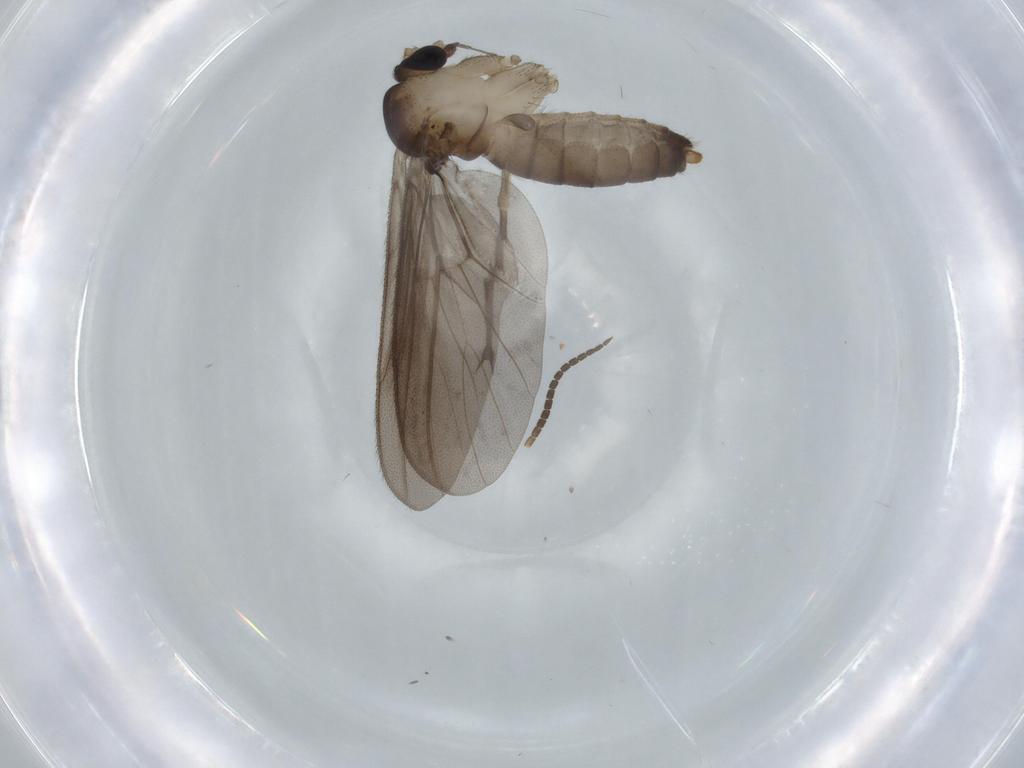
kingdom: Animalia
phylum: Arthropoda
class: Insecta
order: Diptera
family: Diadocidiidae
